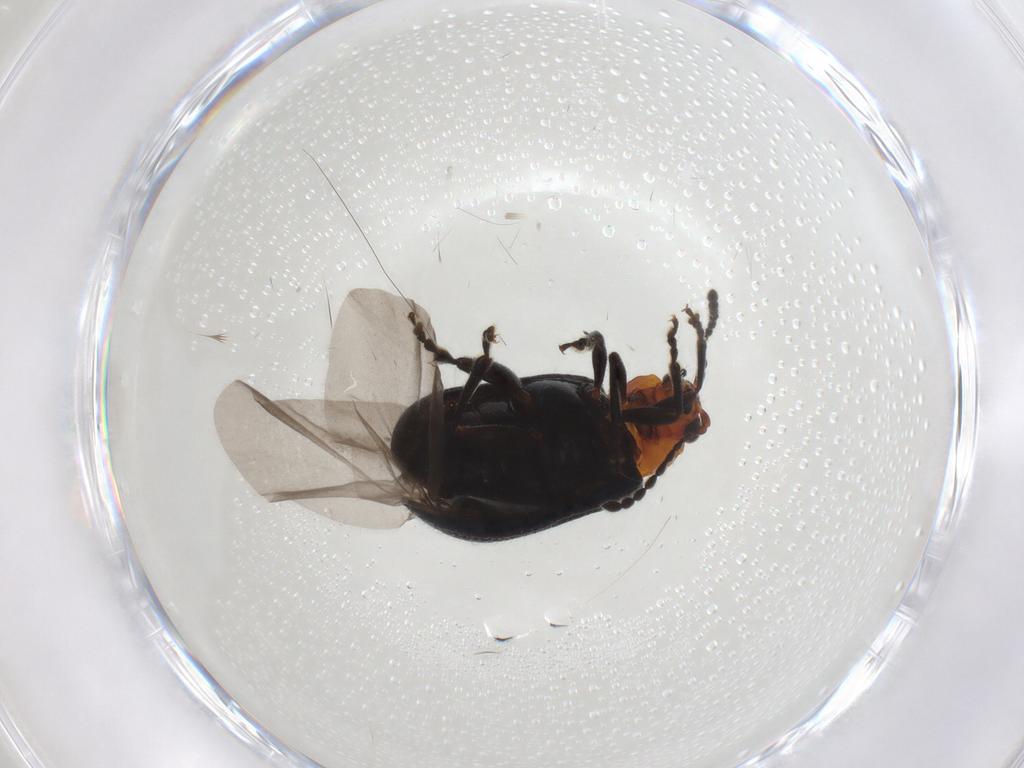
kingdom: Animalia
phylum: Arthropoda
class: Insecta
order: Coleoptera
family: Chrysomelidae
